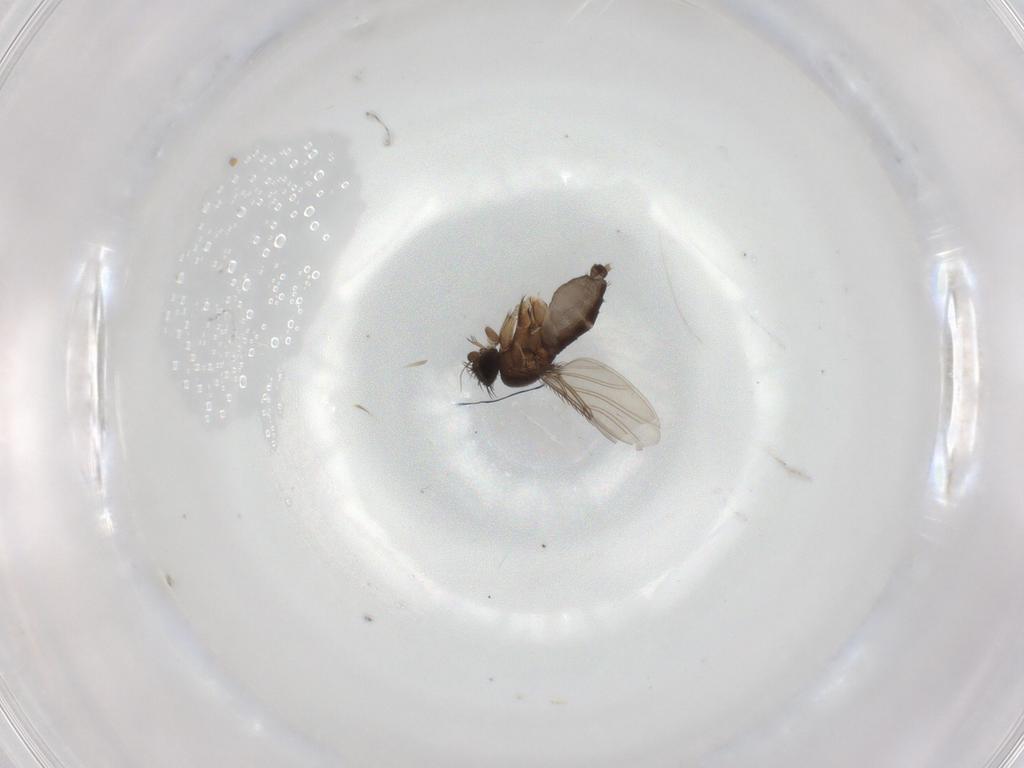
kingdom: Animalia
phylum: Arthropoda
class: Insecta
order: Diptera
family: Phoridae
